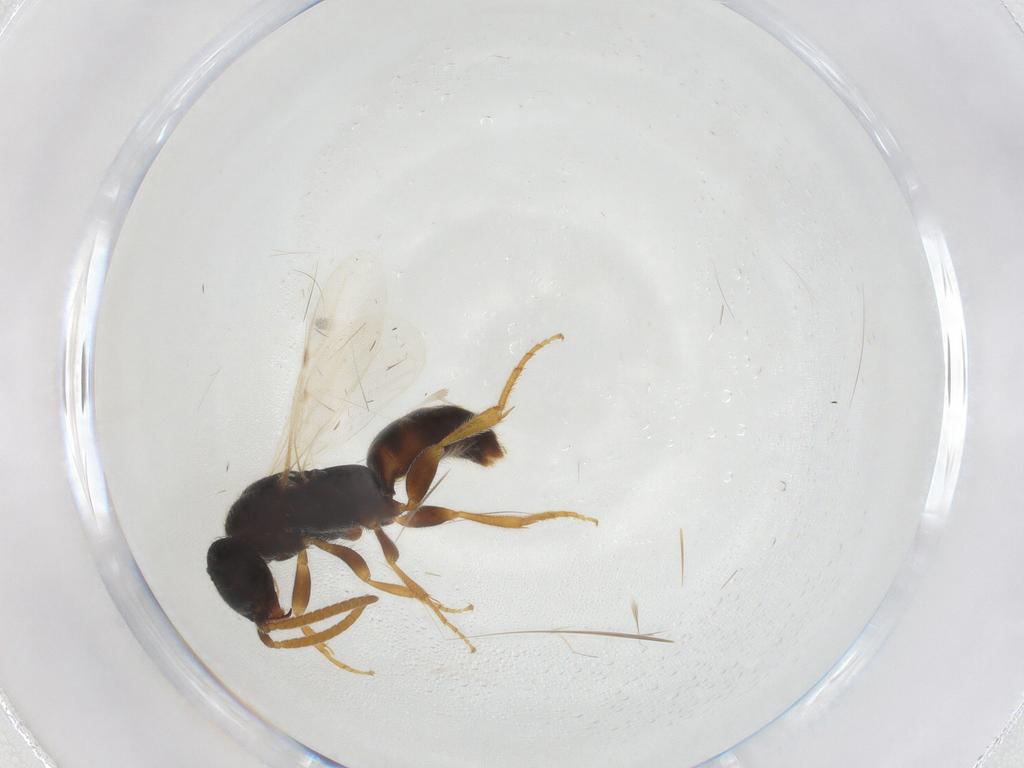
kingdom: Animalia
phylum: Arthropoda
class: Insecta
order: Hymenoptera
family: Bethylidae
